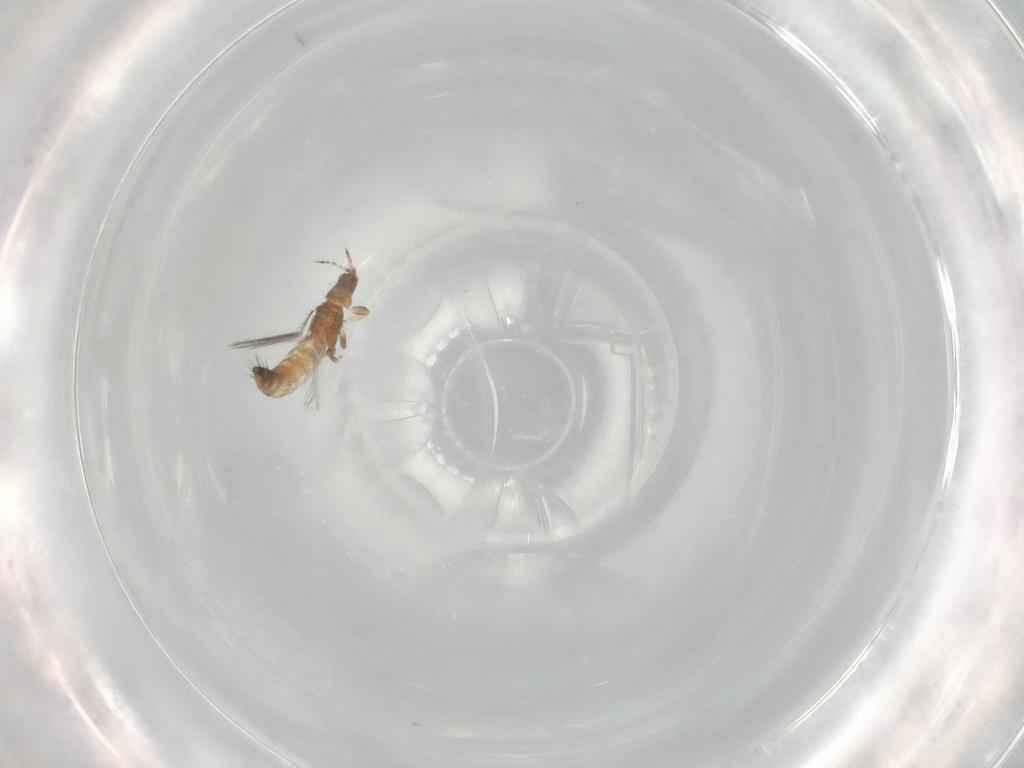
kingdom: Animalia
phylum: Arthropoda
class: Insecta
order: Thysanoptera
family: Thripidae
